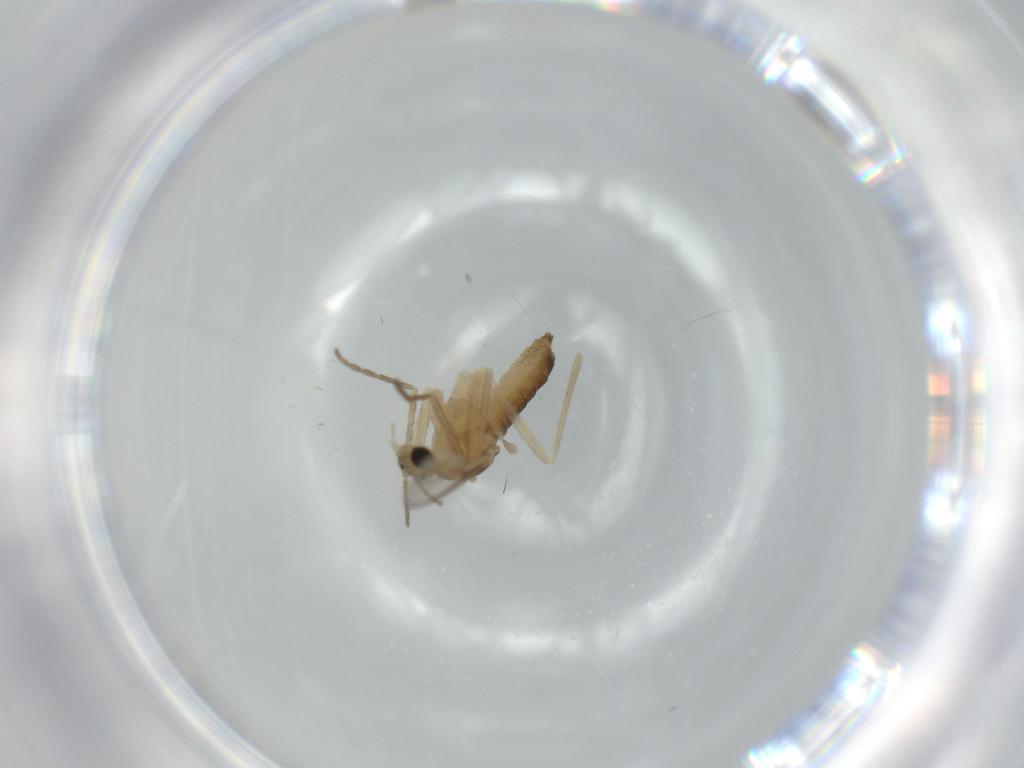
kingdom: Animalia
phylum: Arthropoda
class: Insecta
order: Diptera
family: Cecidomyiidae
